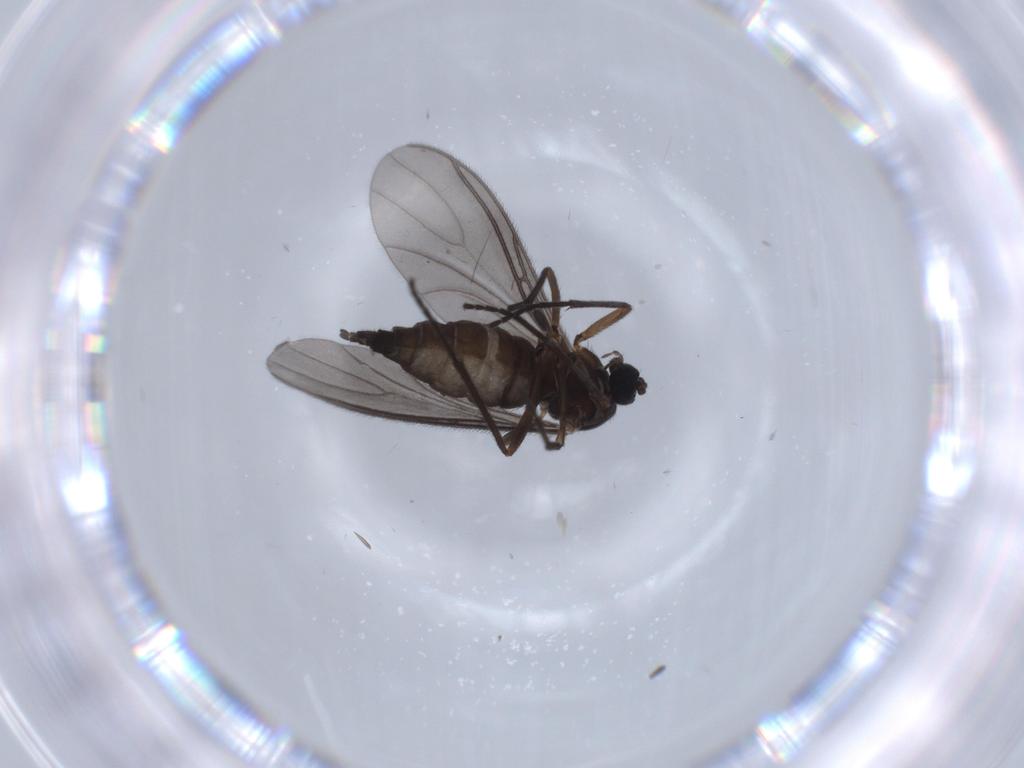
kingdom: Animalia
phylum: Arthropoda
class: Insecta
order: Diptera
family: Sciaridae
